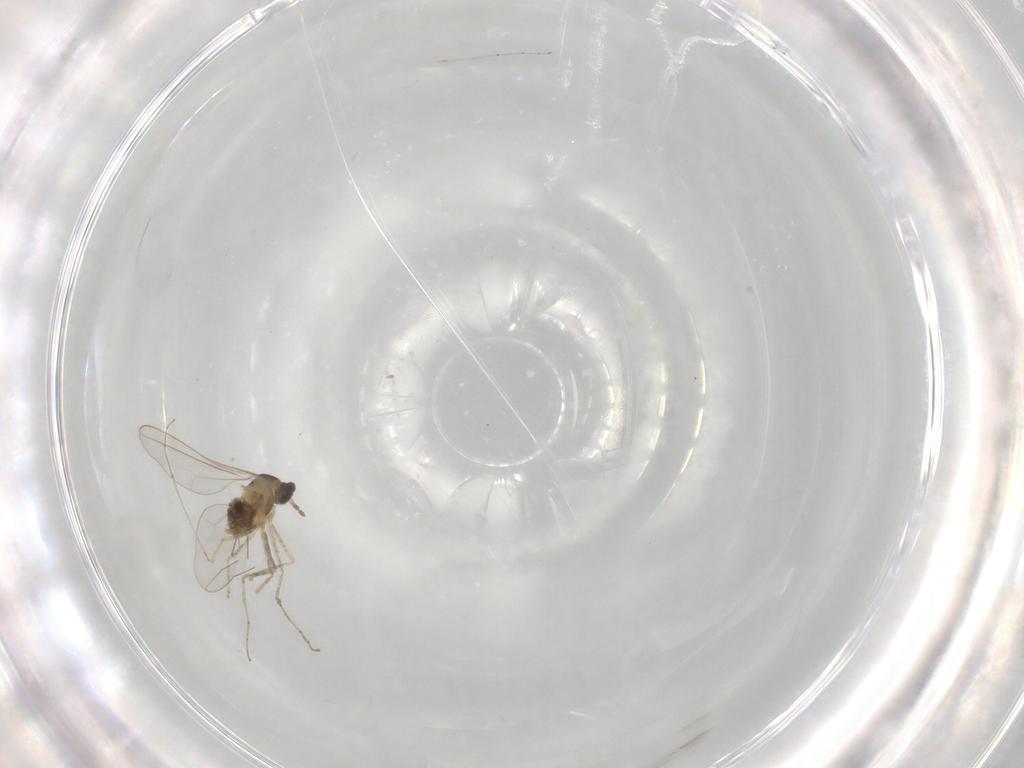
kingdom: Animalia
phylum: Arthropoda
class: Insecta
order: Diptera
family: Cecidomyiidae
